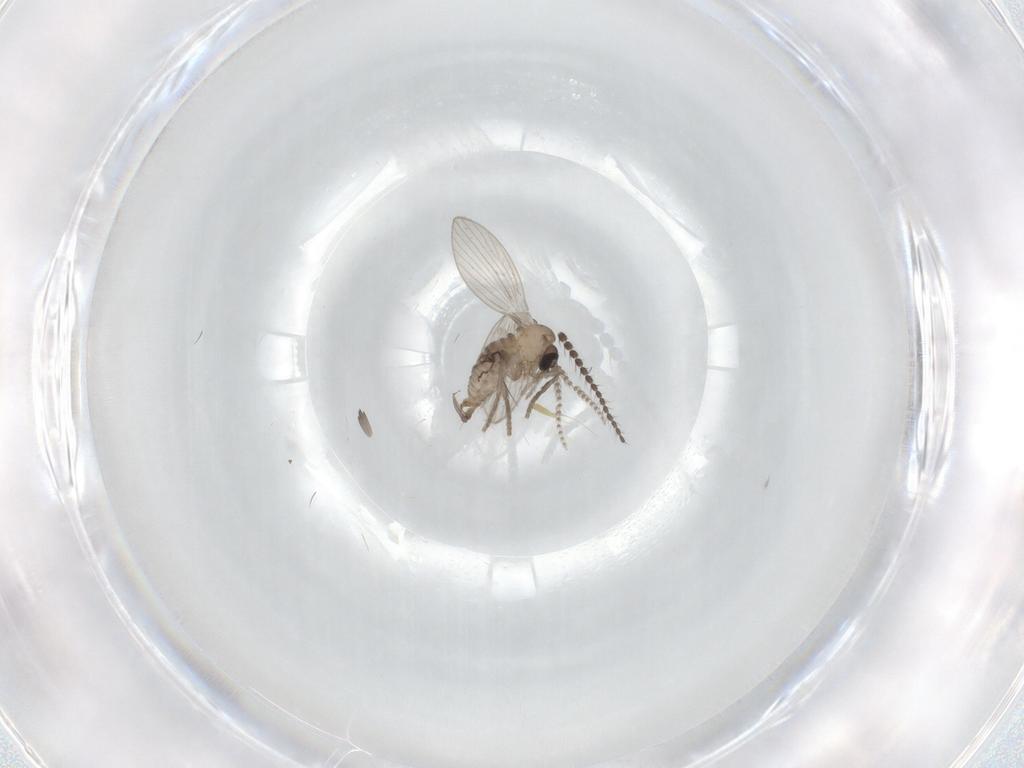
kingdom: Animalia
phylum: Arthropoda
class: Insecta
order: Diptera
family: Psychodidae
